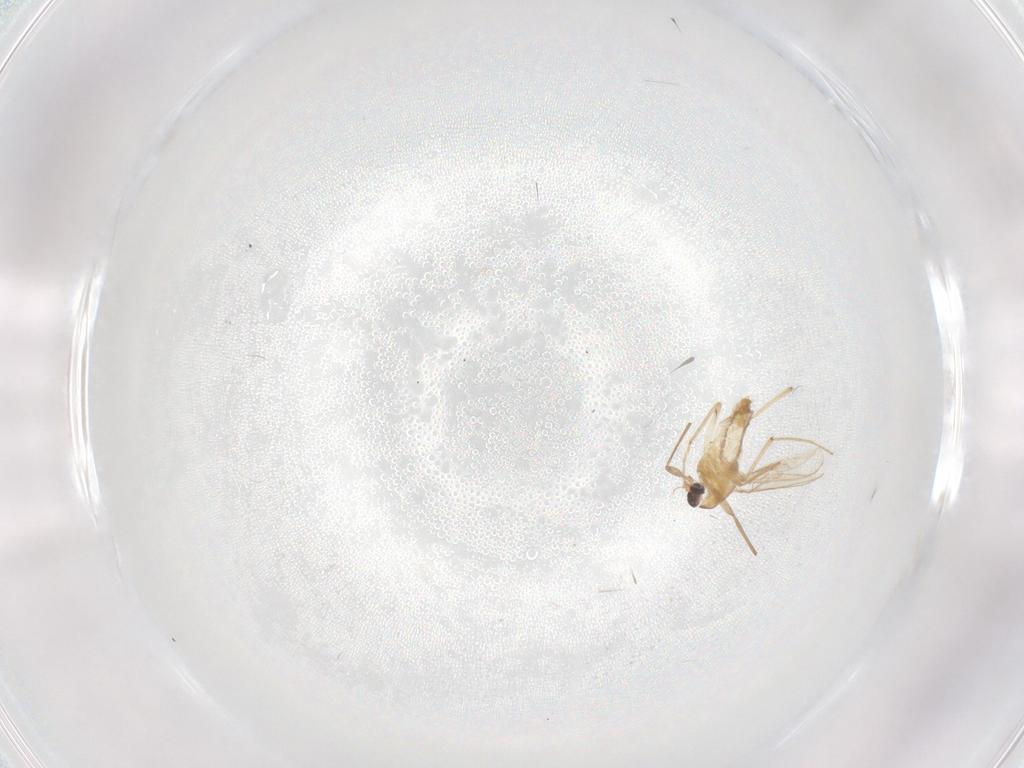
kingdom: Animalia
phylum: Arthropoda
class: Insecta
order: Diptera
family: Chironomidae
